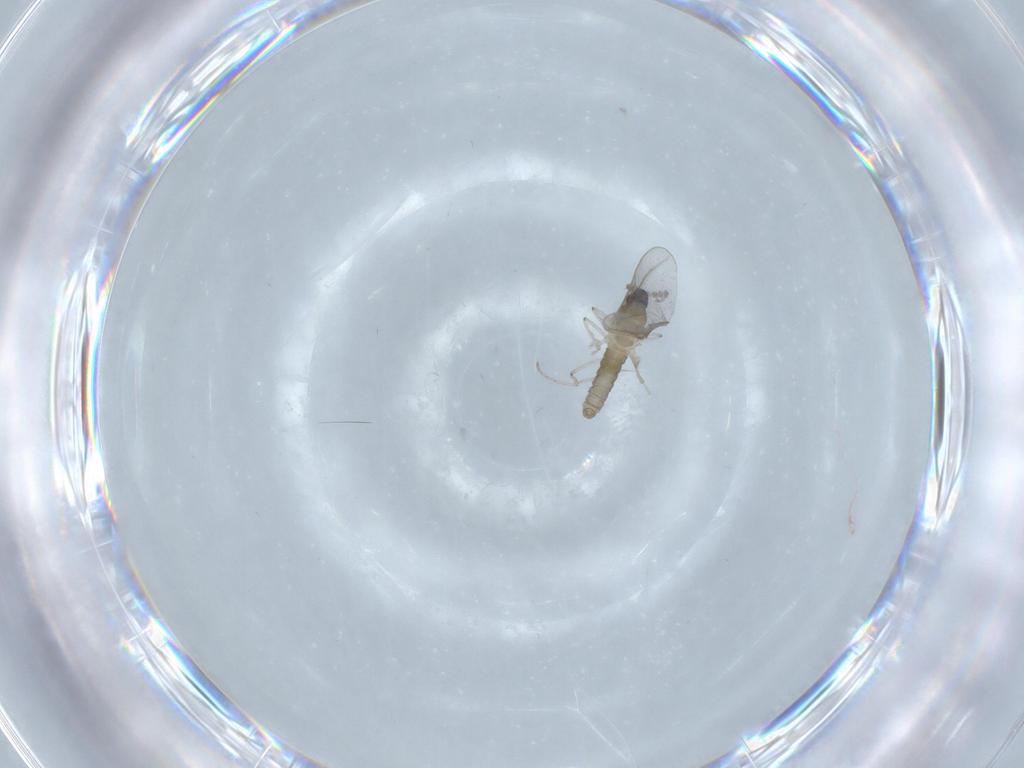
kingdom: Animalia
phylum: Arthropoda
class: Insecta
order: Diptera
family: Cecidomyiidae
